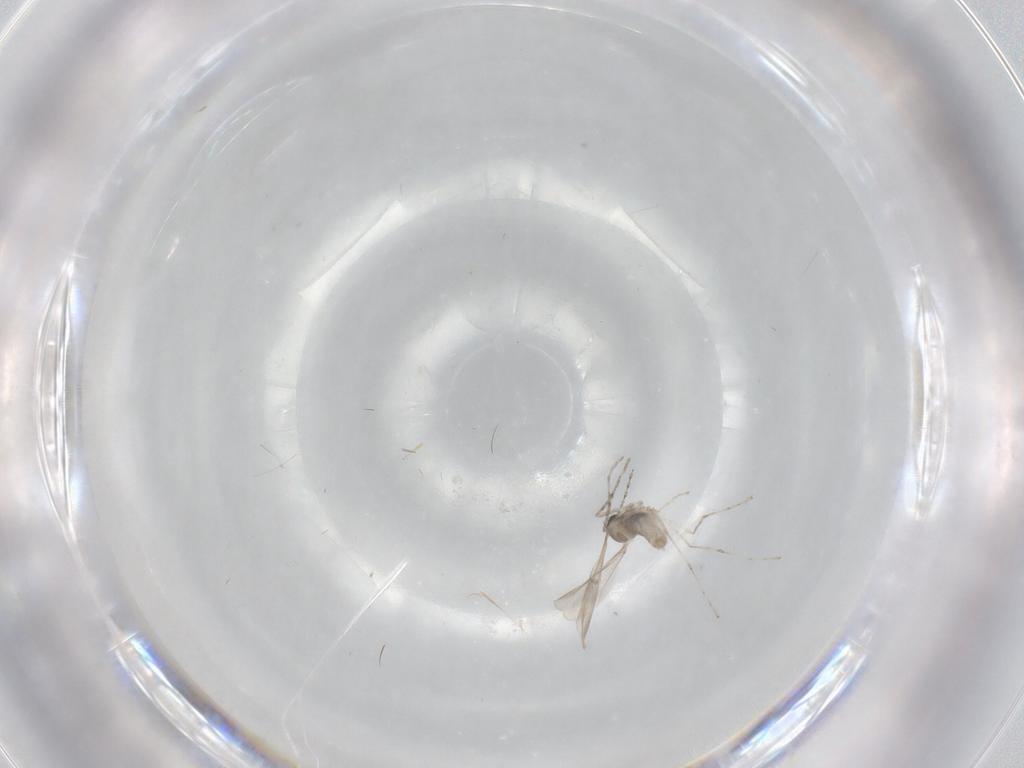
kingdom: Animalia
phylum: Arthropoda
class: Insecta
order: Diptera
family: Cecidomyiidae
